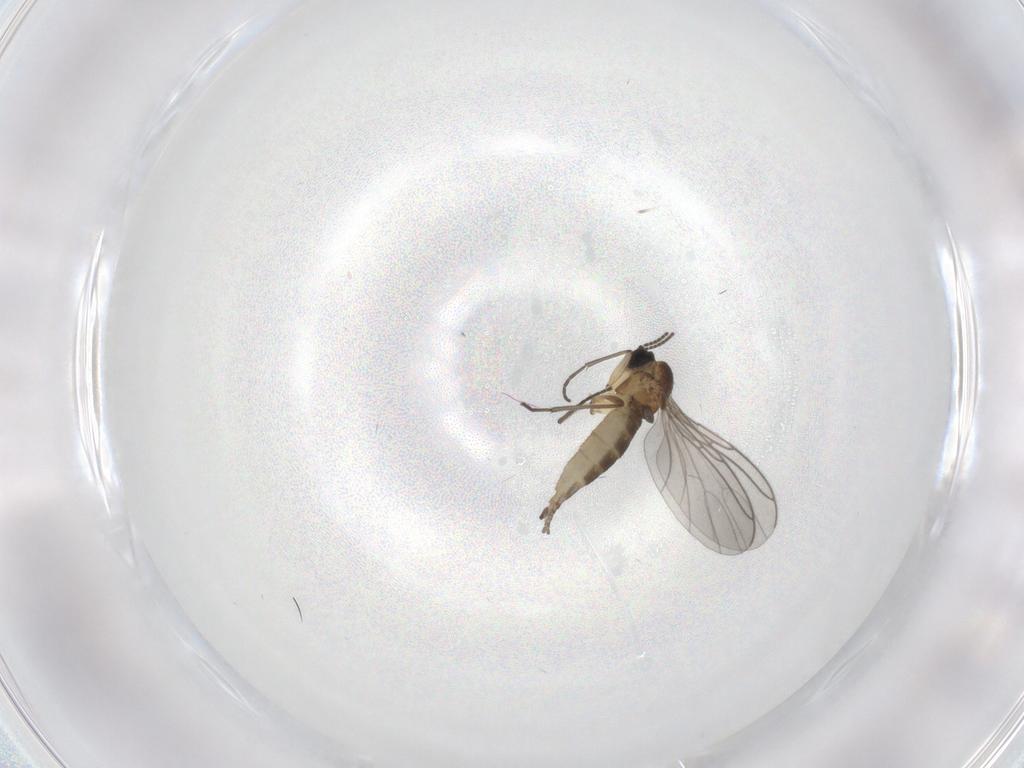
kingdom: Animalia
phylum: Arthropoda
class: Insecta
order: Diptera
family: Sciaridae
